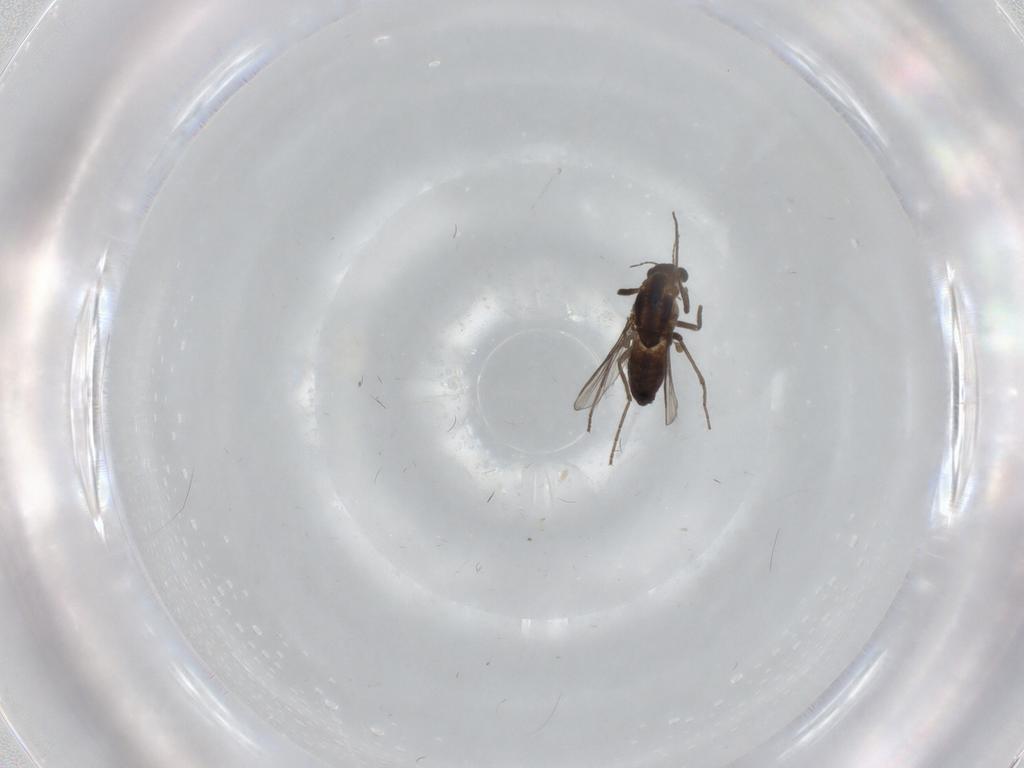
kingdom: Animalia
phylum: Arthropoda
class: Insecta
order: Diptera
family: Chironomidae
